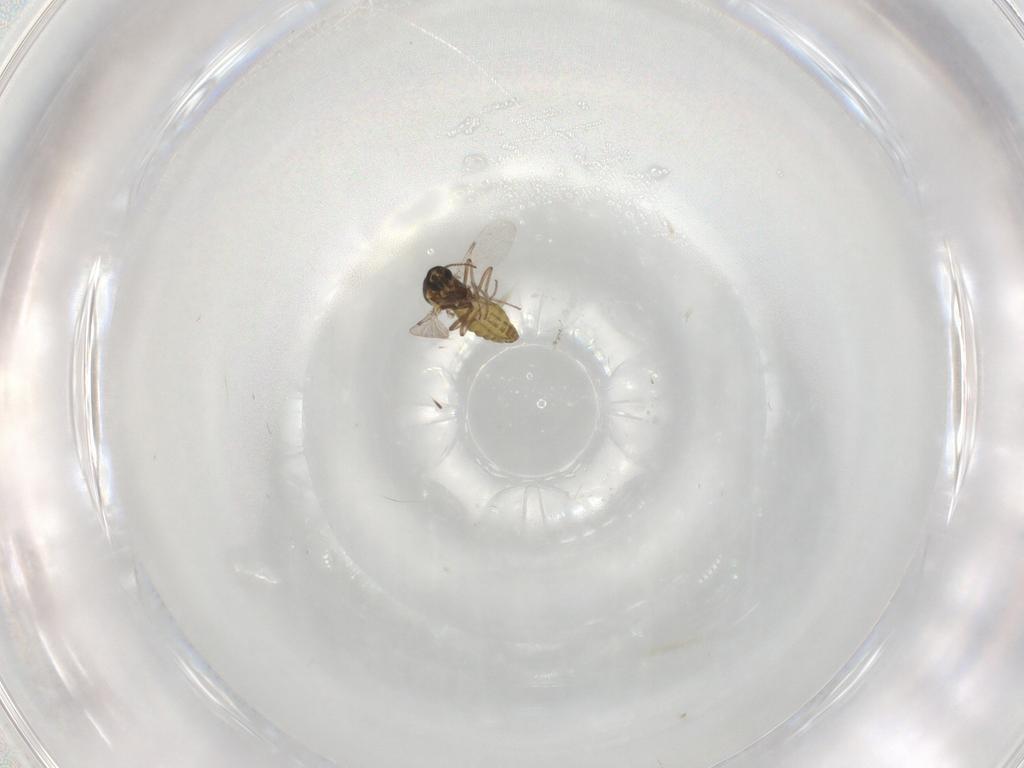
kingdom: Animalia
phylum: Arthropoda
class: Insecta
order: Diptera
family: Ceratopogonidae
